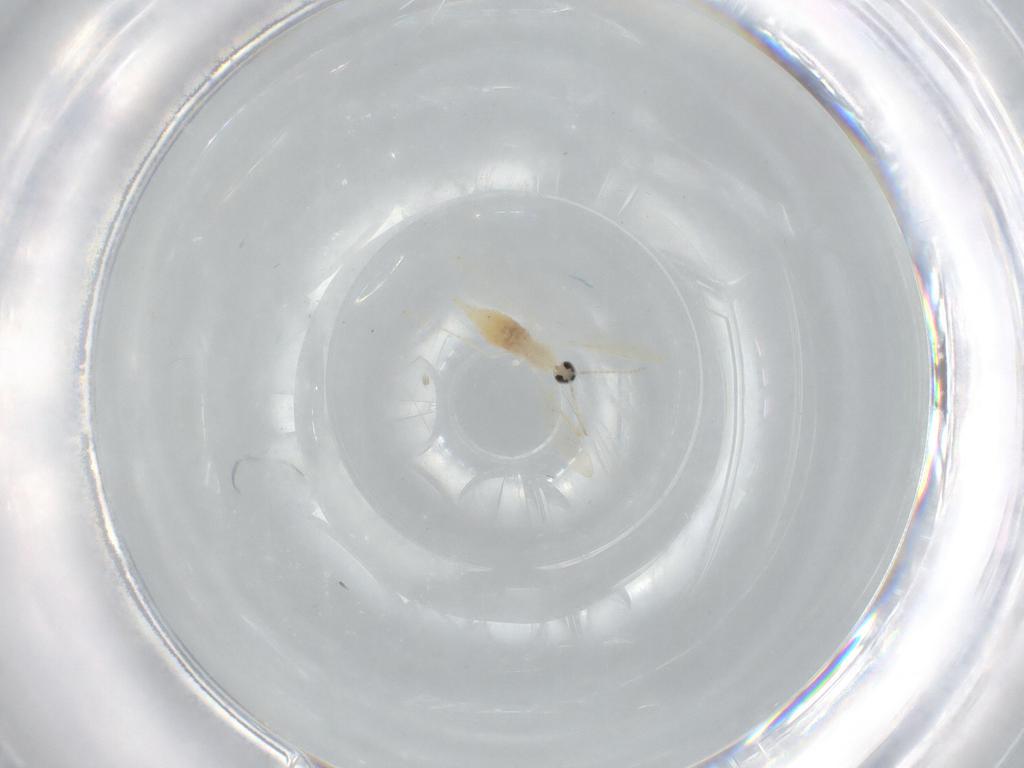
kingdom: Animalia
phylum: Arthropoda
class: Insecta
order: Diptera
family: Cecidomyiidae
